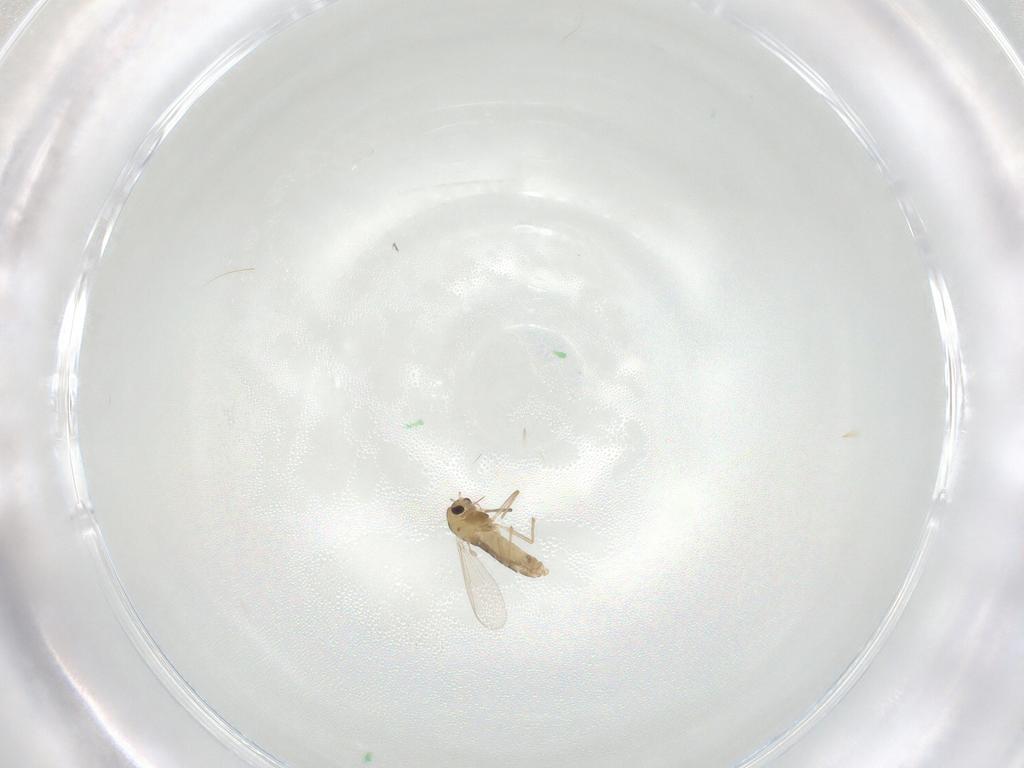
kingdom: Animalia
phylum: Arthropoda
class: Insecta
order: Diptera
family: Chironomidae
